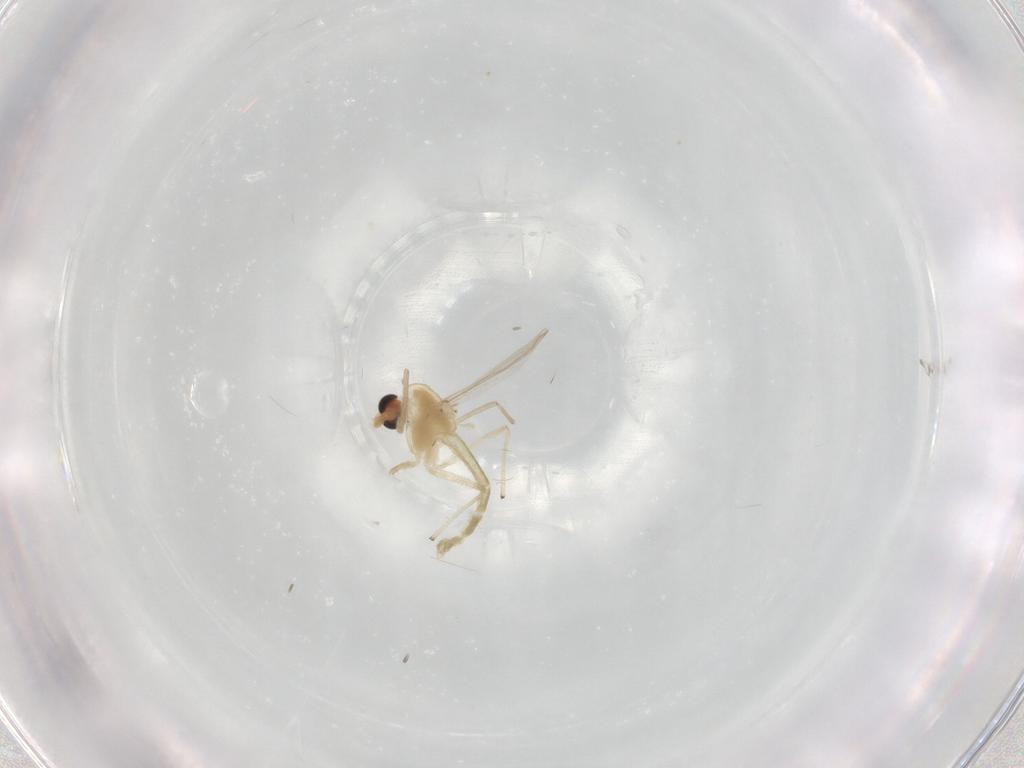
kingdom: Animalia
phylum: Arthropoda
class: Insecta
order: Diptera
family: Chironomidae
